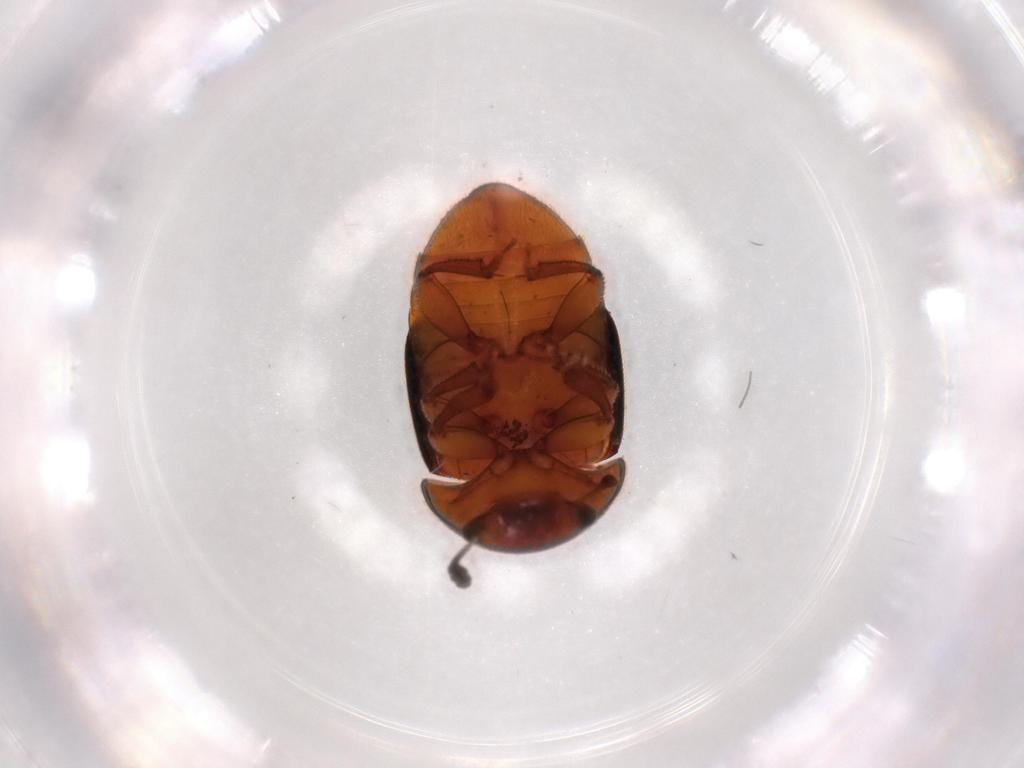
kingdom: Animalia
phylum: Arthropoda
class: Insecta
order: Coleoptera
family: Nitidulidae
